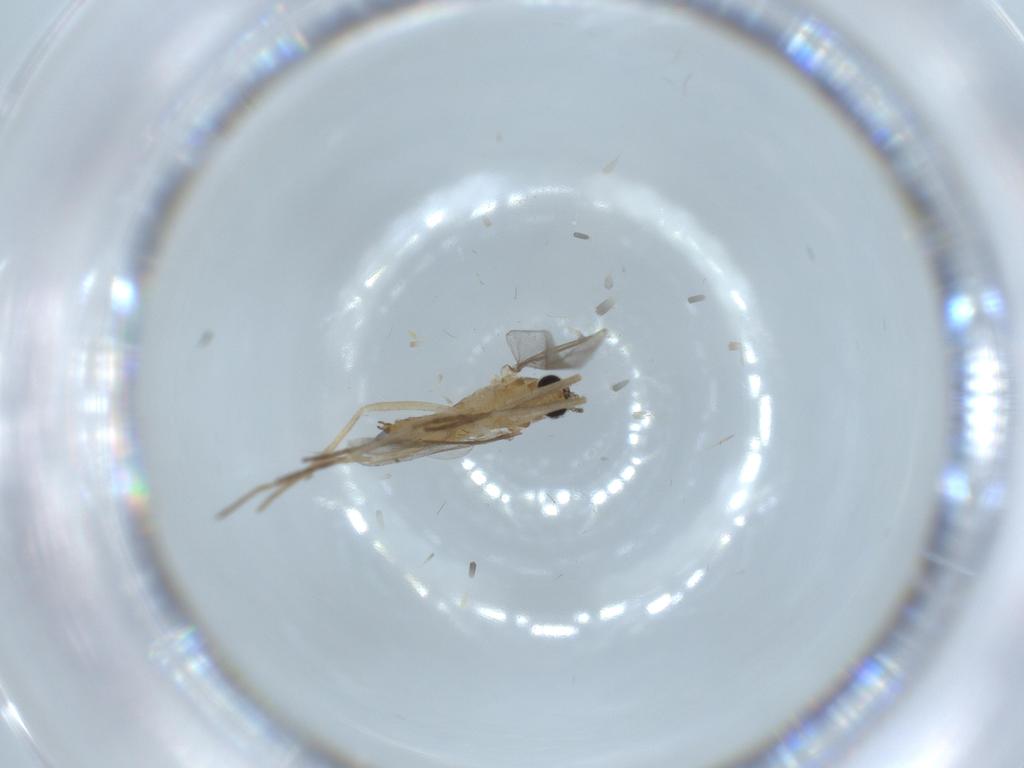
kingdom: Animalia
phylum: Arthropoda
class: Insecta
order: Diptera
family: Cecidomyiidae
